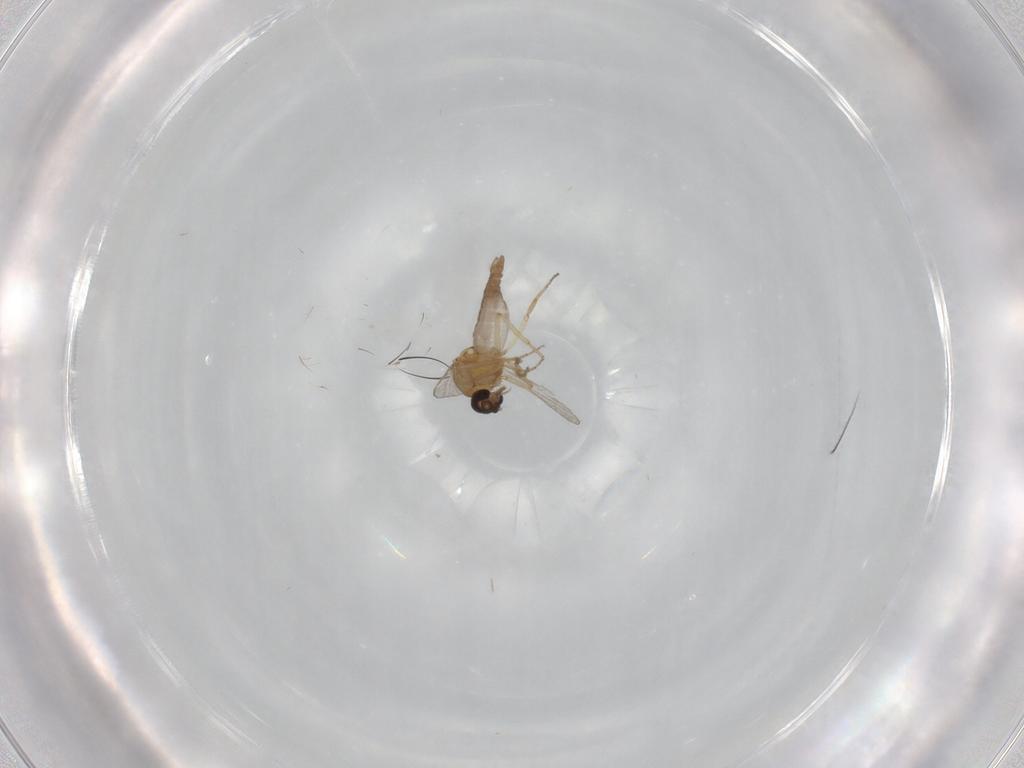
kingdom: Animalia
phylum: Arthropoda
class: Insecta
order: Diptera
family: Ceratopogonidae
